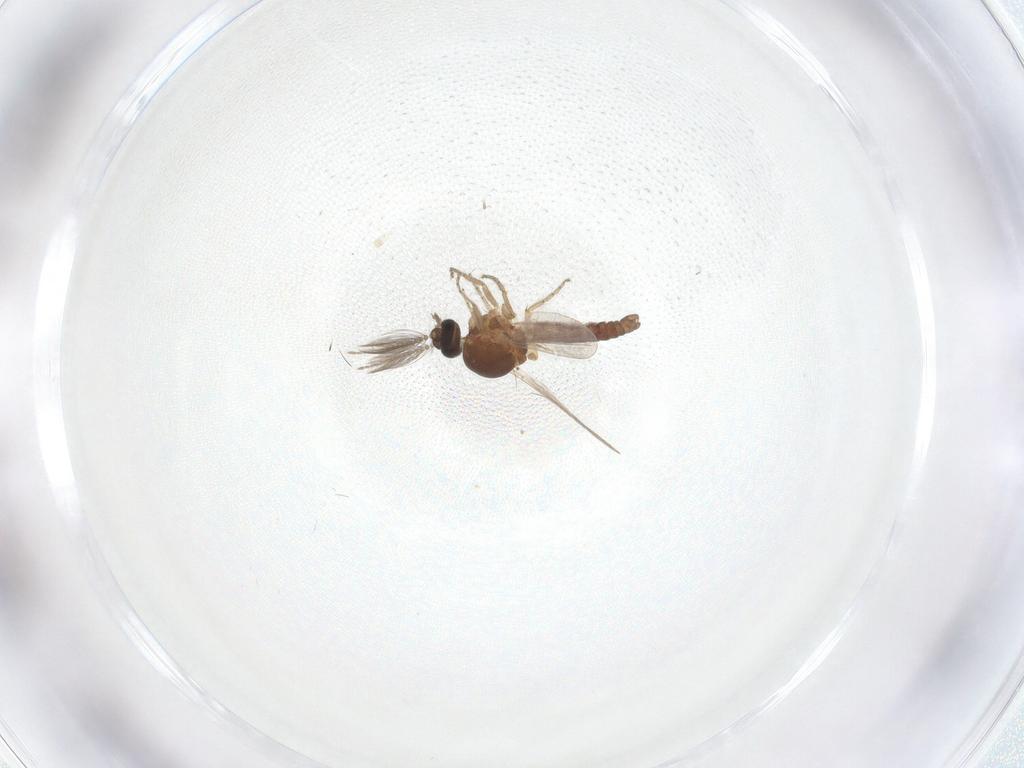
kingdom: Animalia
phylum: Arthropoda
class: Insecta
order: Diptera
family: Ceratopogonidae
